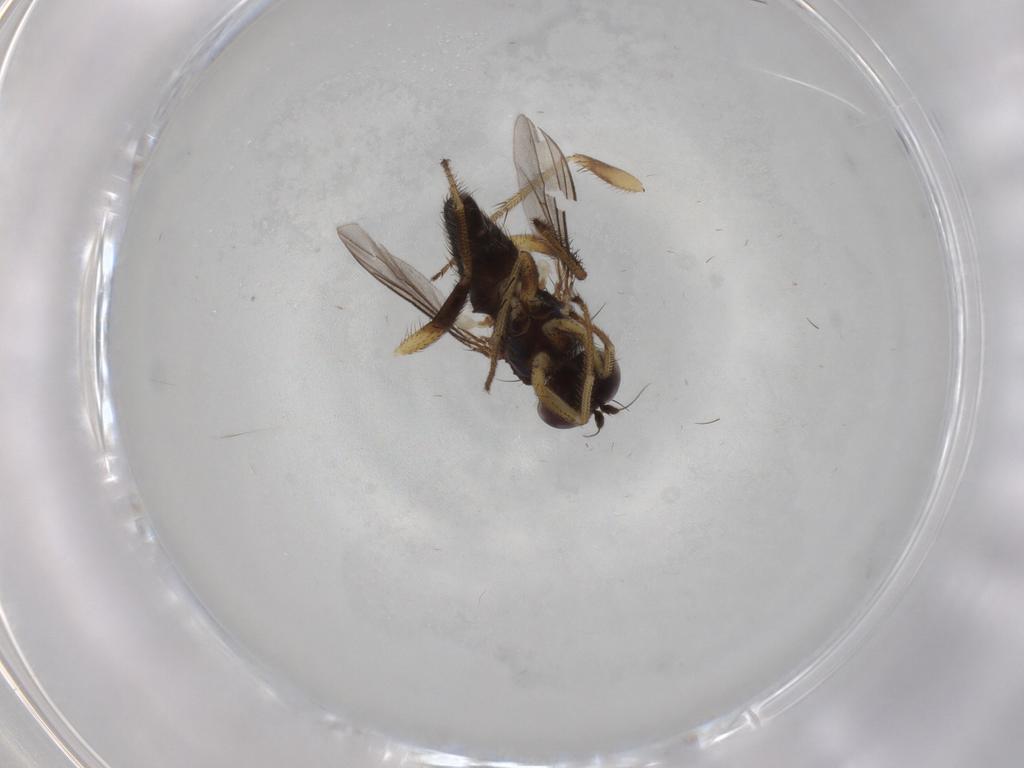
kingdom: Animalia
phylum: Arthropoda
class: Insecta
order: Diptera
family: Dolichopodidae
